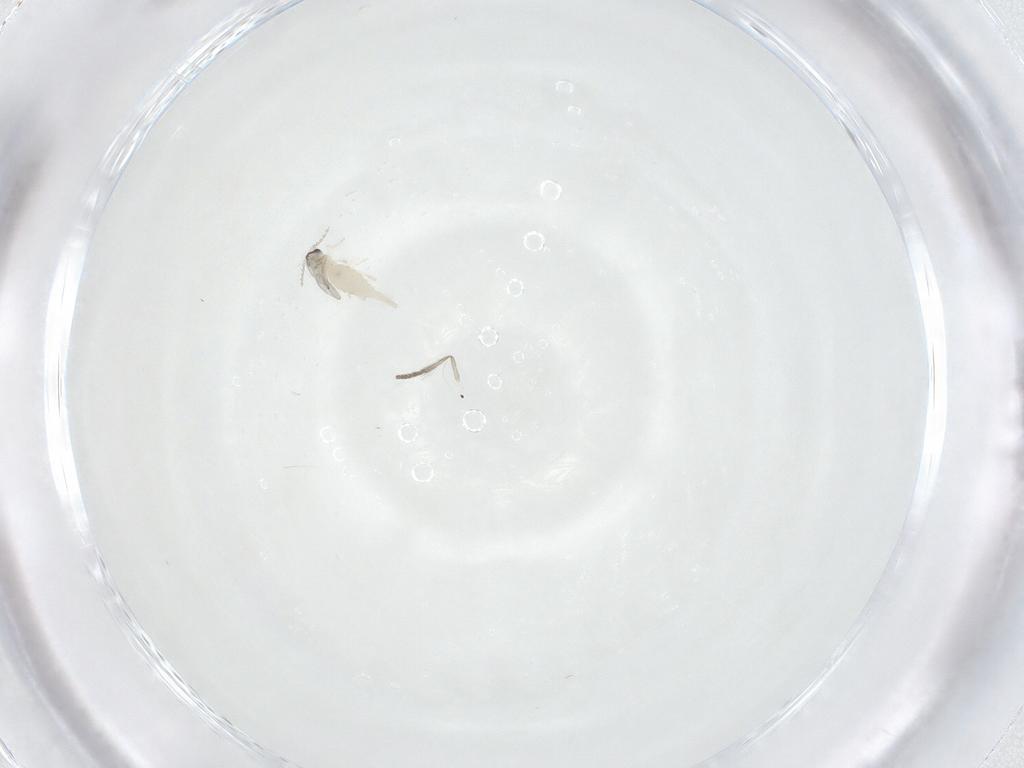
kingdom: Animalia
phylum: Arthropoda
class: Insecta
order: Diptera
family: Cecidomyiidae
